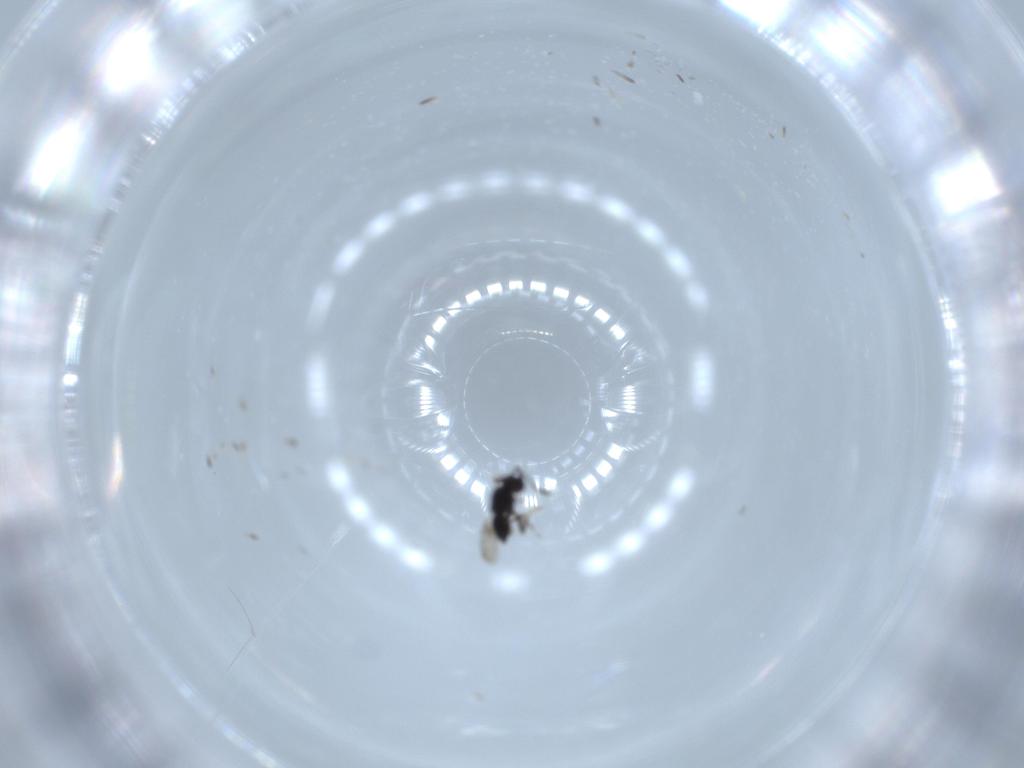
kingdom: Animalia
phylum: Arthropoda
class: Insecta
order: Hymenoptera
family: Platygastridae
